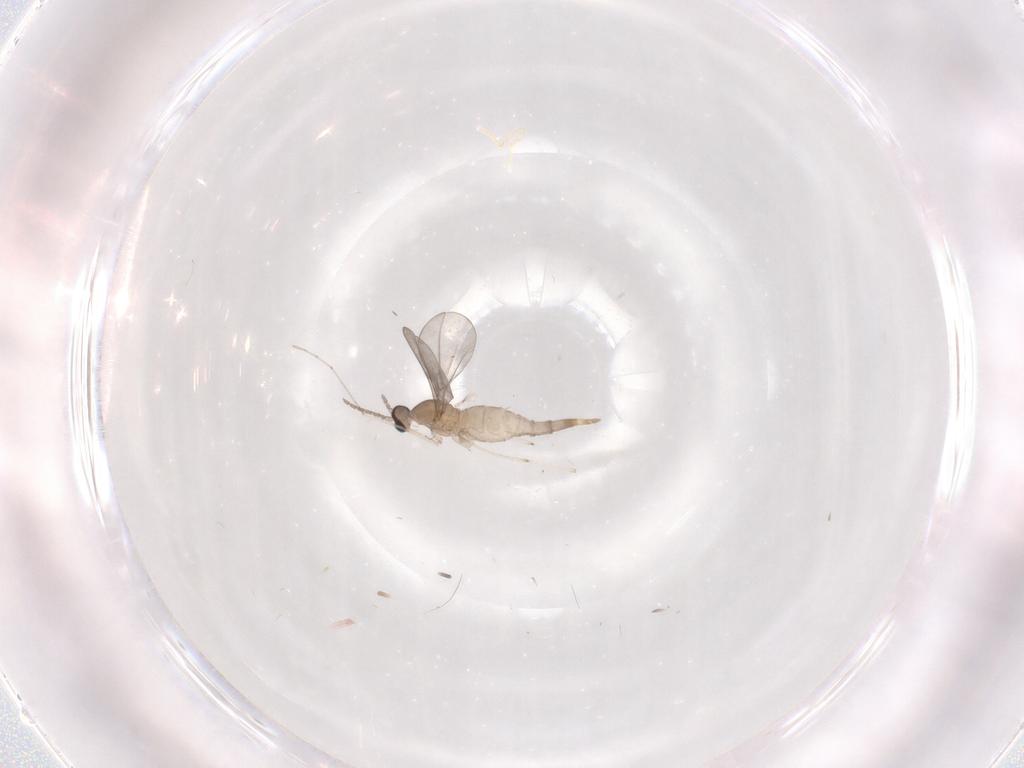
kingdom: Animalia
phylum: Arthropoda
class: Insecta
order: Diptera
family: Cecidomyiidae
